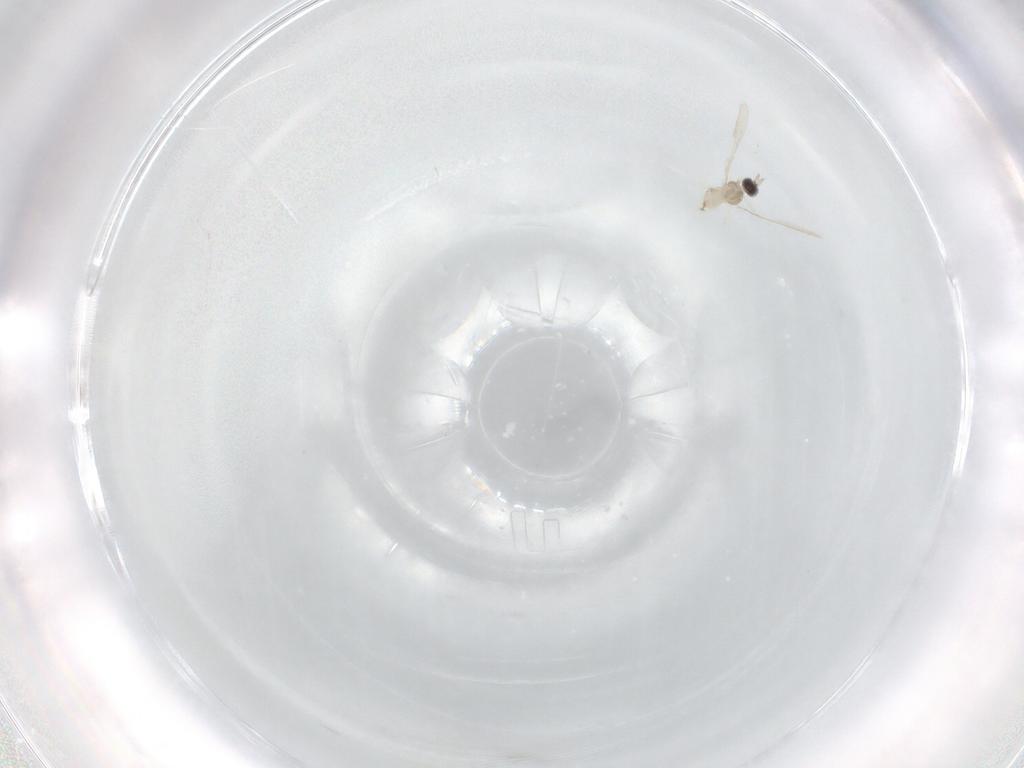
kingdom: Animalia
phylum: Arthropoda
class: Insecta
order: Diptera
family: Cecidomyiidae
